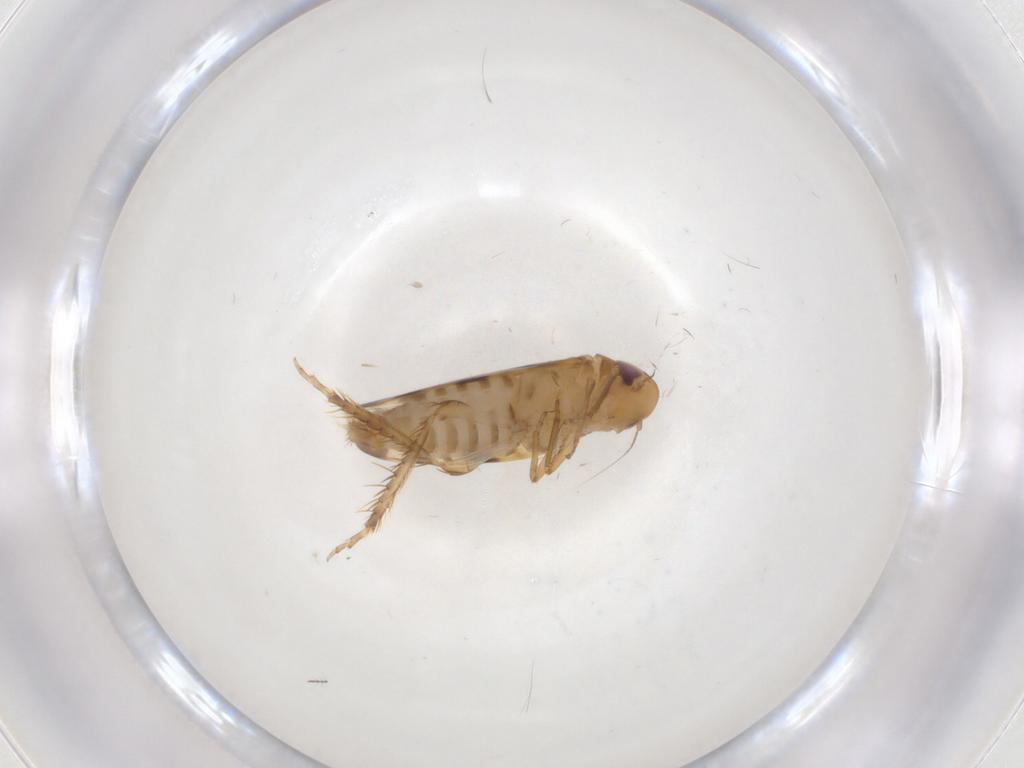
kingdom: Animalia
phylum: Arthropoda
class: Insecta
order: Hemiptera
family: Cicadellidae
